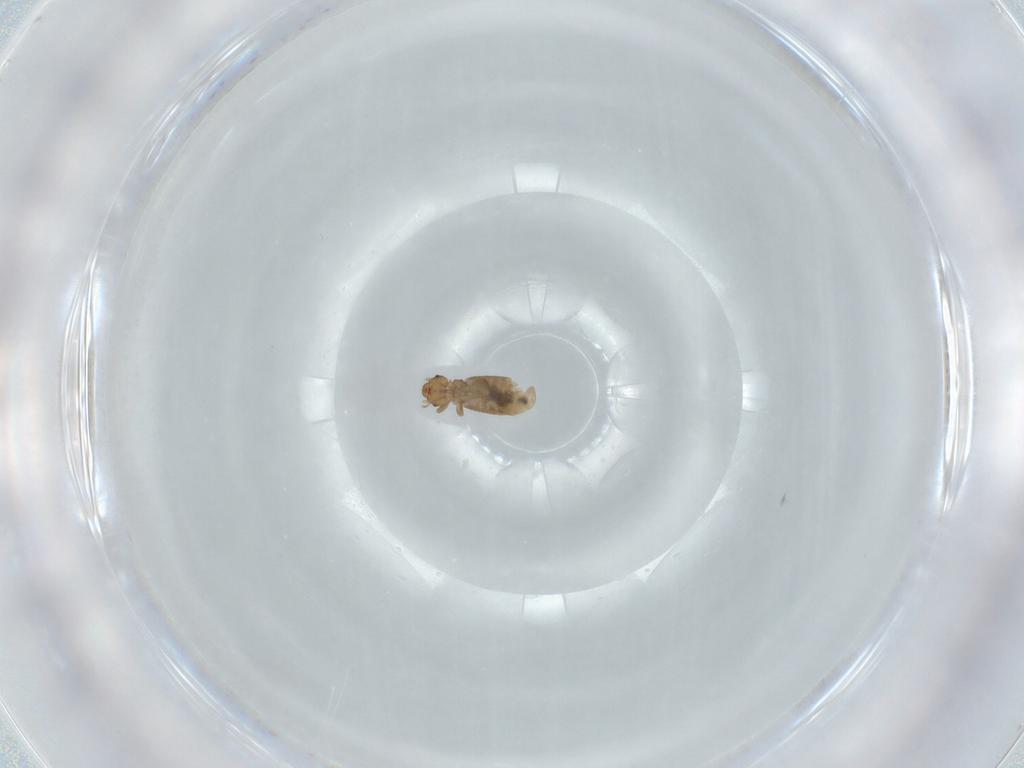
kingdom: Animalia
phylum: Arthropoda
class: Insecta
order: Psocodea
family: Liposcelididae
